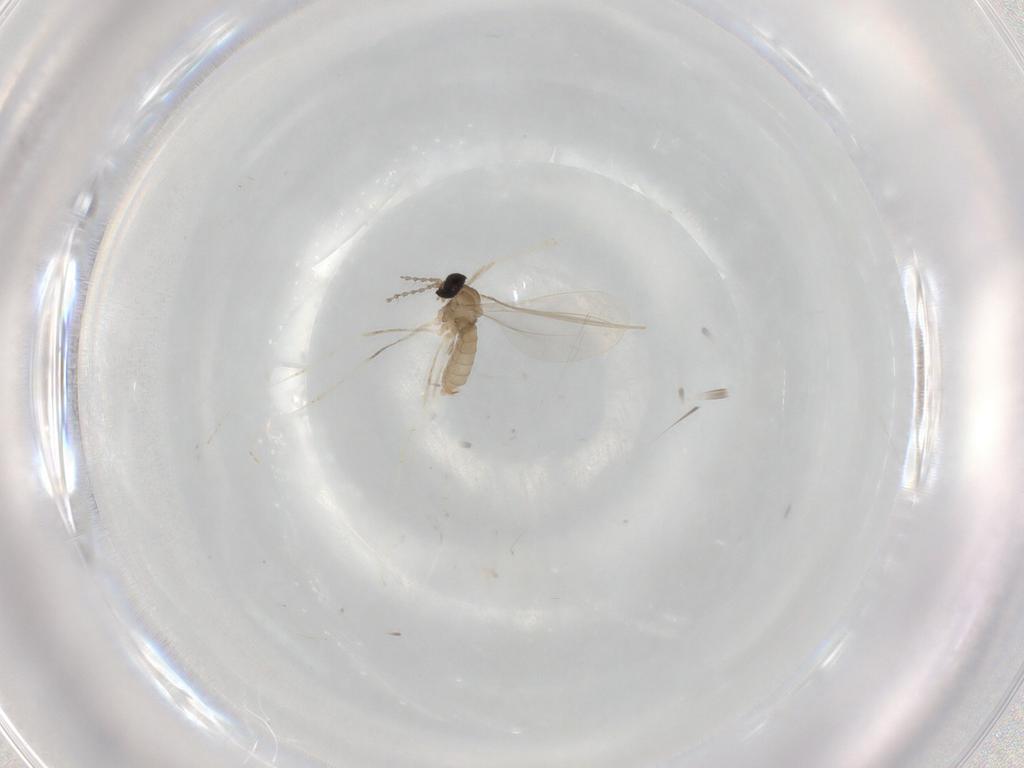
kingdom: Animalia
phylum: Arthropoda
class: Insecta
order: Diptera
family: Cecidomyiidae
